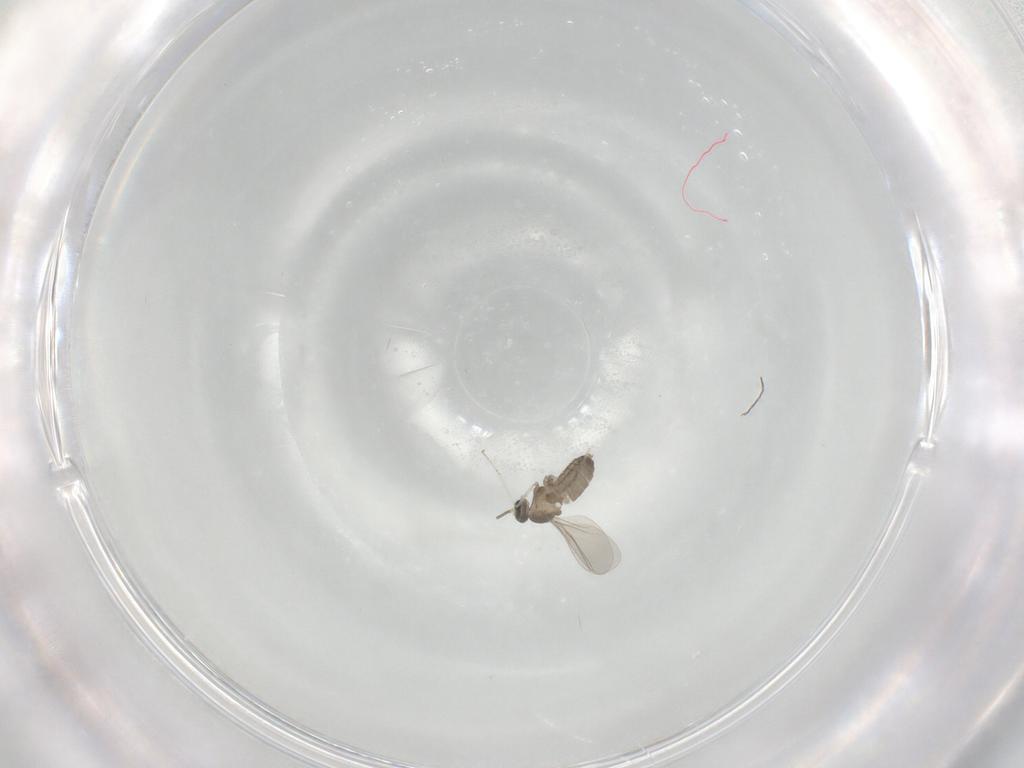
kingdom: Animalia
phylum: Arthropoda
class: Insecta
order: Diptera
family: Cecidomyiidae
